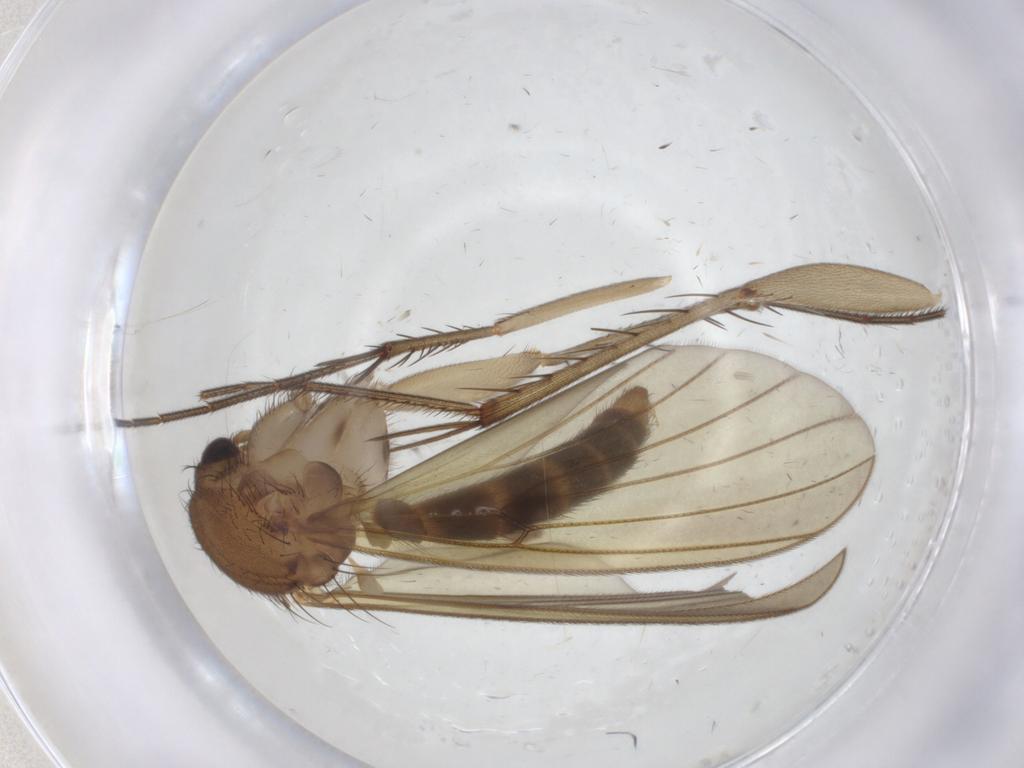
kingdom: Animalia
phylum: Arthropoda
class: Insecta
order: Diptera
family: Mycetophilidae
